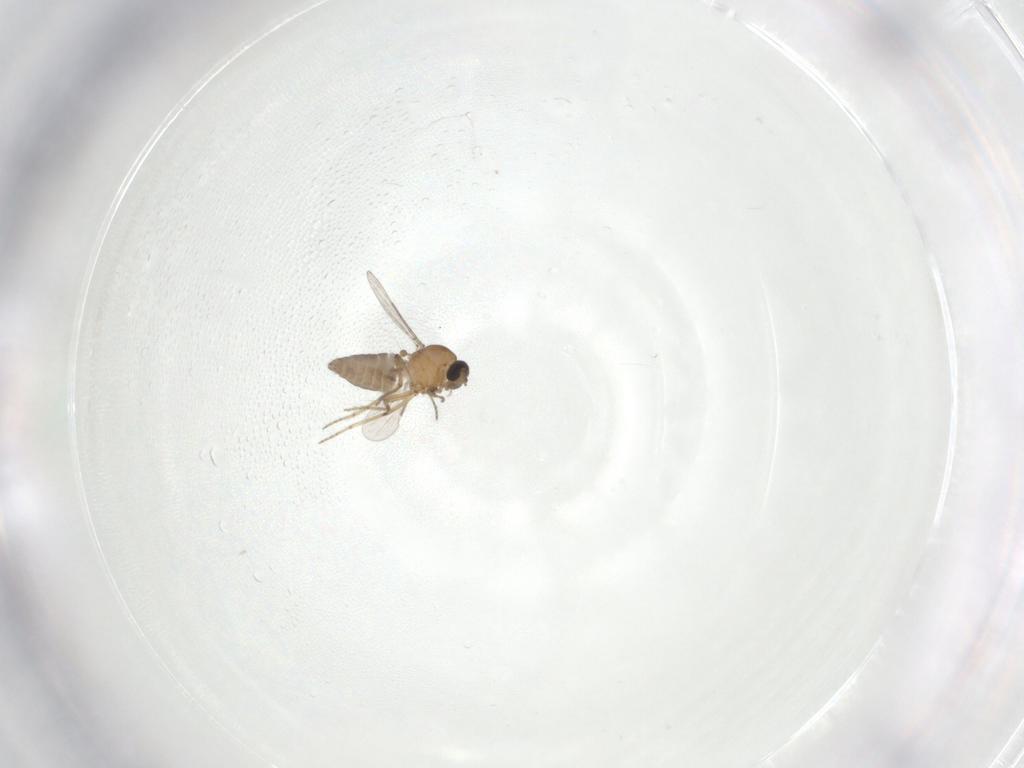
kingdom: Animalia
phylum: Arthropoda
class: Insecta
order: Diptera
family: Ceratopogonidae
